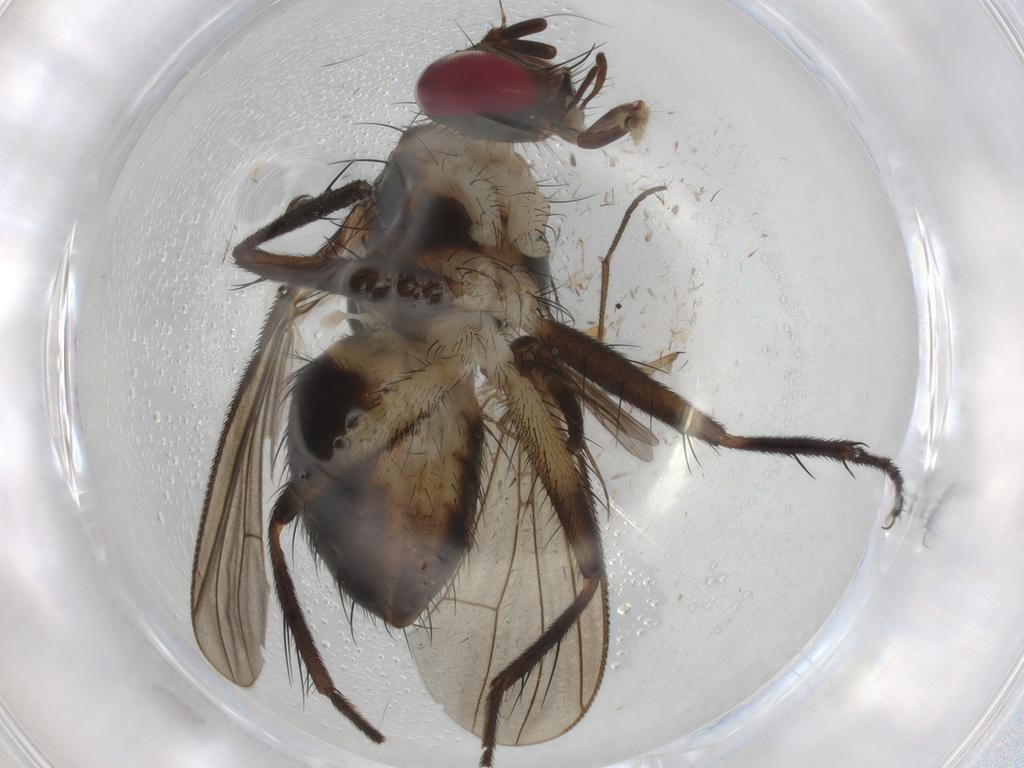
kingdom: Animalia
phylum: Arthropoda
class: Insecta
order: Diptera
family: Muscidae
